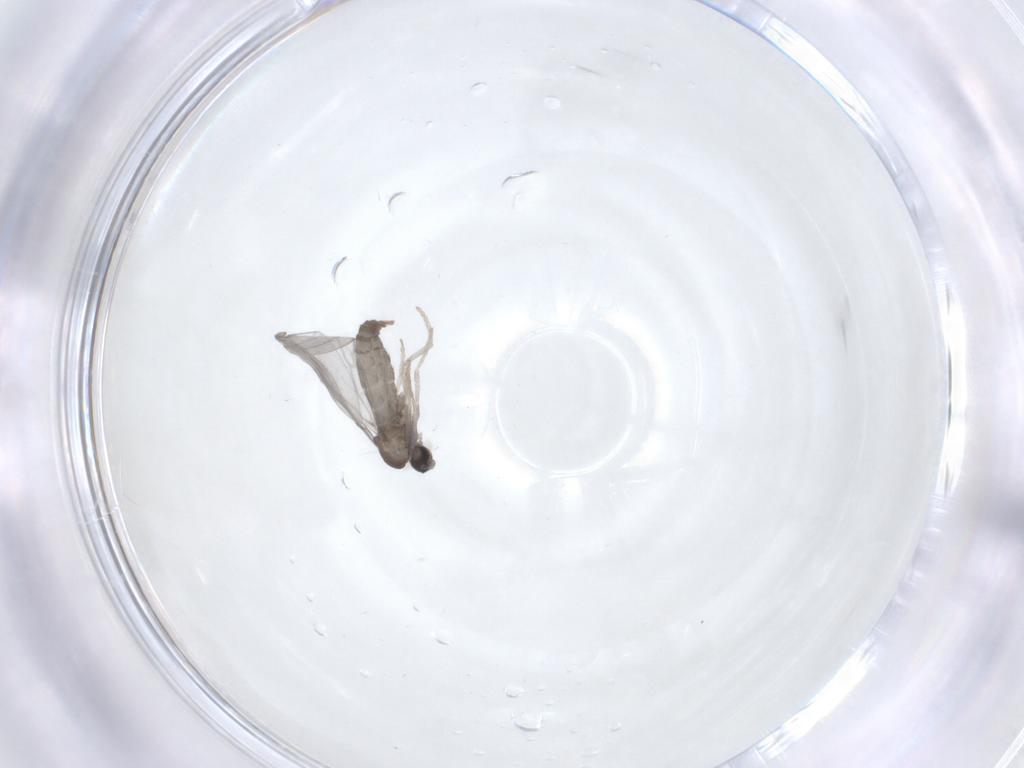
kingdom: Animalia
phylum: Arthropoda
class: Insecta
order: Diptera
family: Cecidomyiidae
